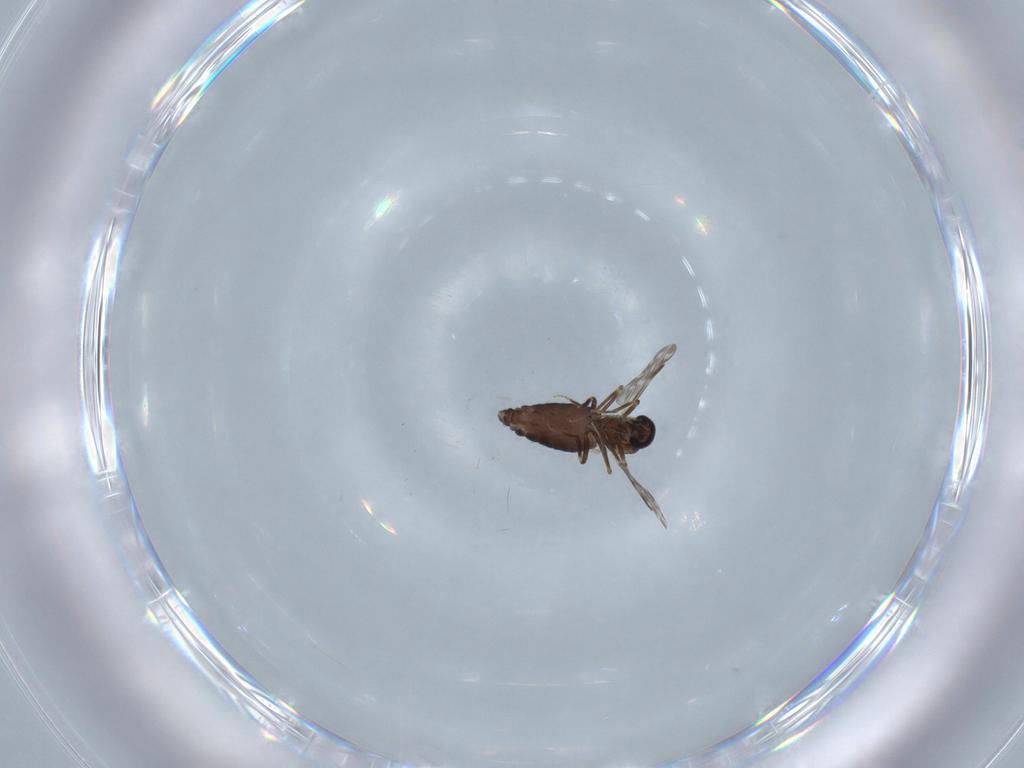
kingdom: Animalia
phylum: Arthropoda
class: Insecta
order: Diptera
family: Ceratopogonidae
